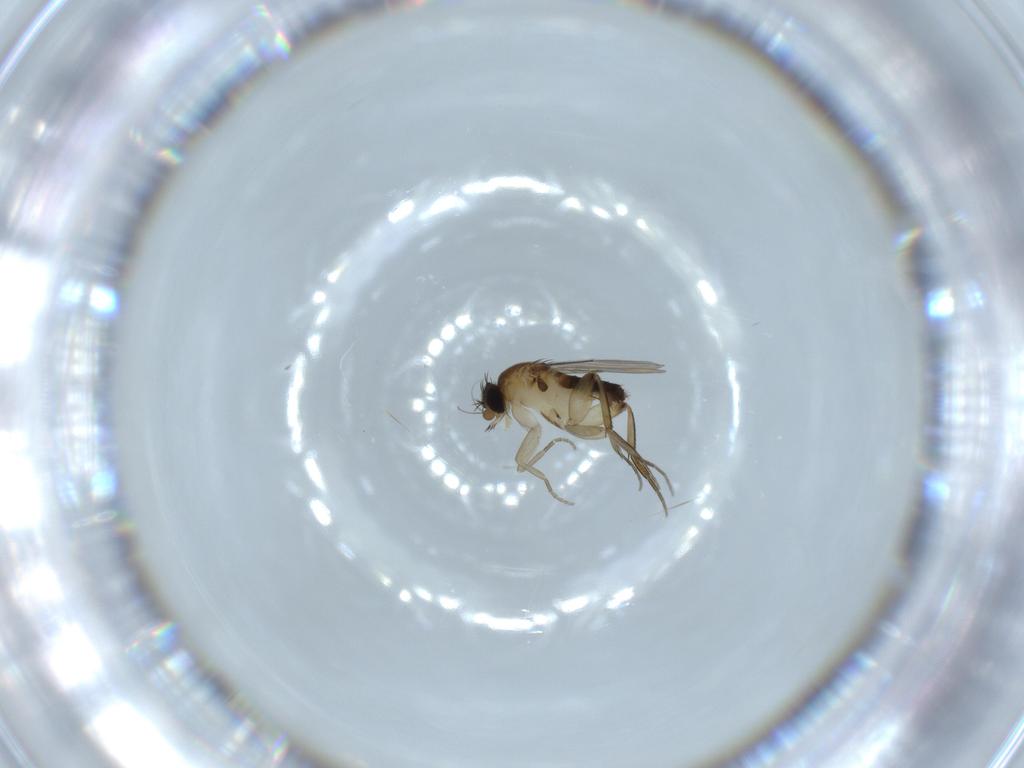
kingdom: Animalia
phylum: Arthropoda
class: Insecta
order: Diptera
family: Phoridae
